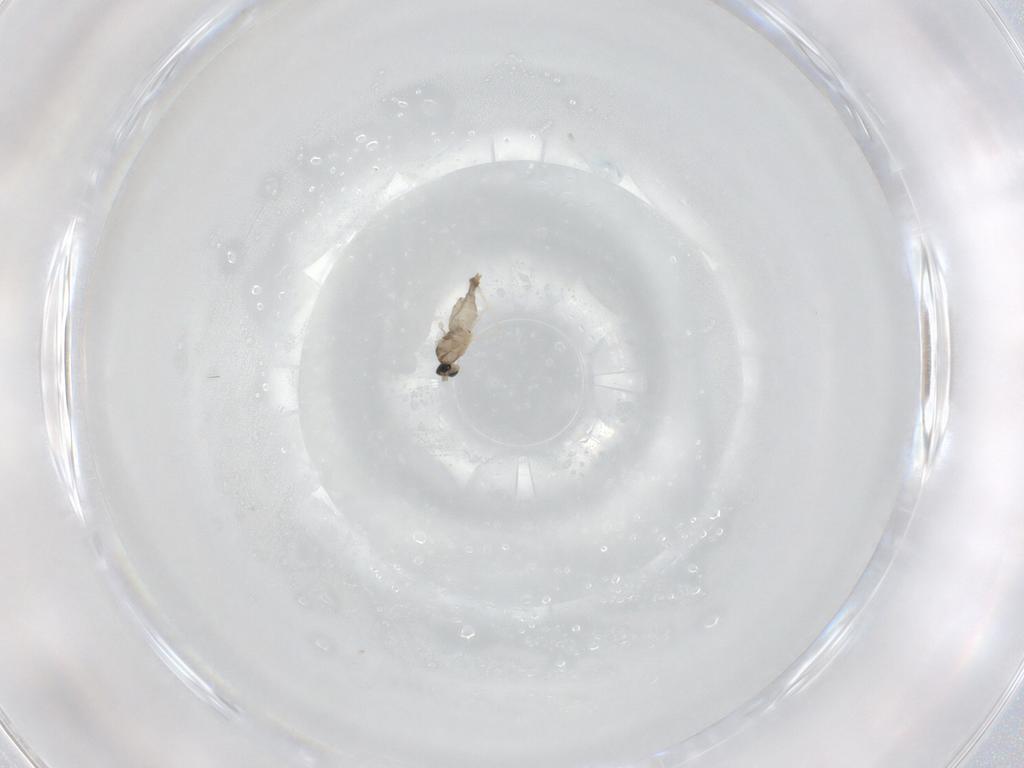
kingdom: Animalia
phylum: Arthropoda
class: Insecta
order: Diptera
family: Cecidomyiidae
